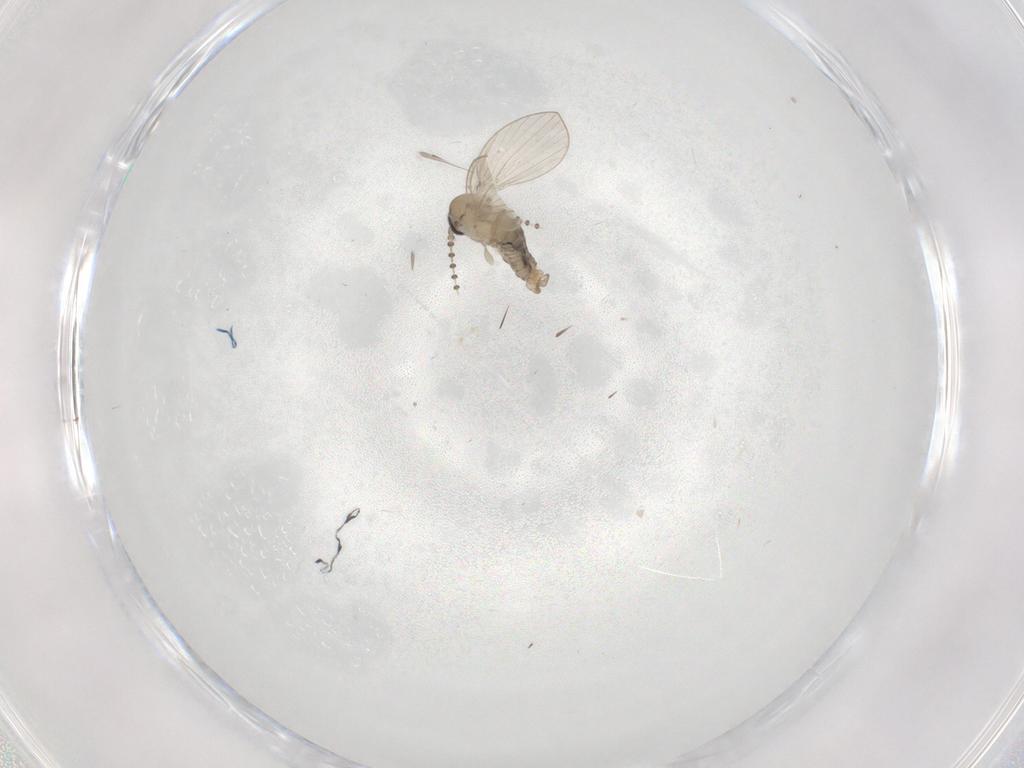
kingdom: Animalia
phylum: Arthropoda
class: Insecta
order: Diptera
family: Psychodidae
